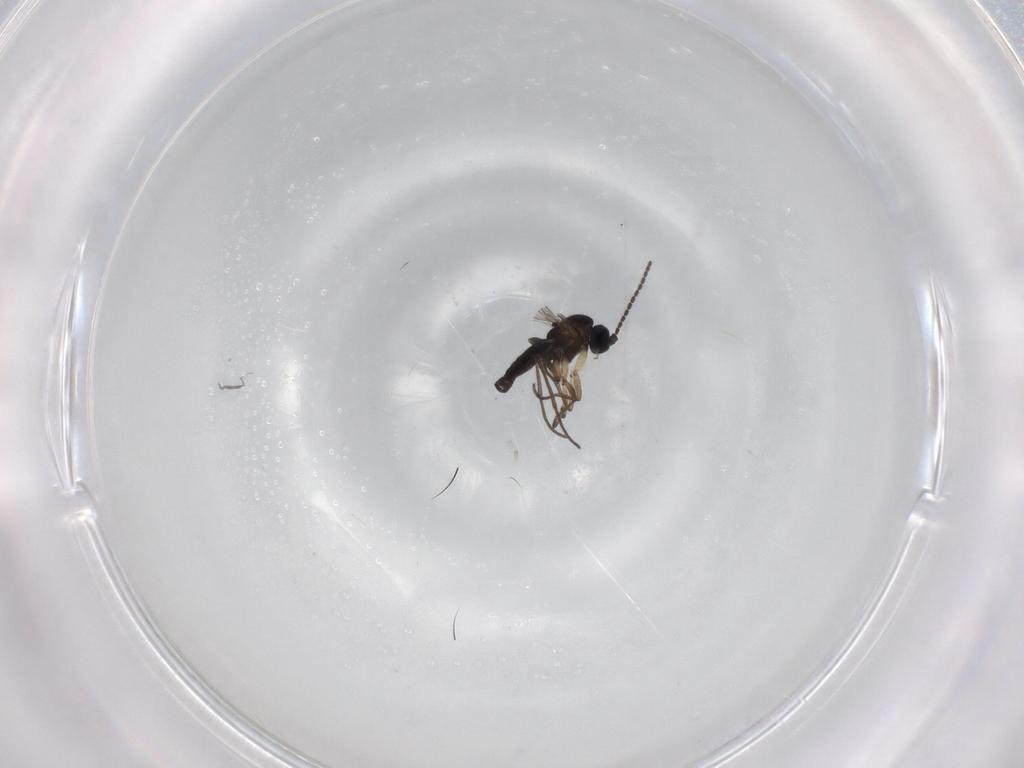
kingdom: Animalia
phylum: Arthropoda
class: Insecta
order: Diptera
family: Sciaridae
